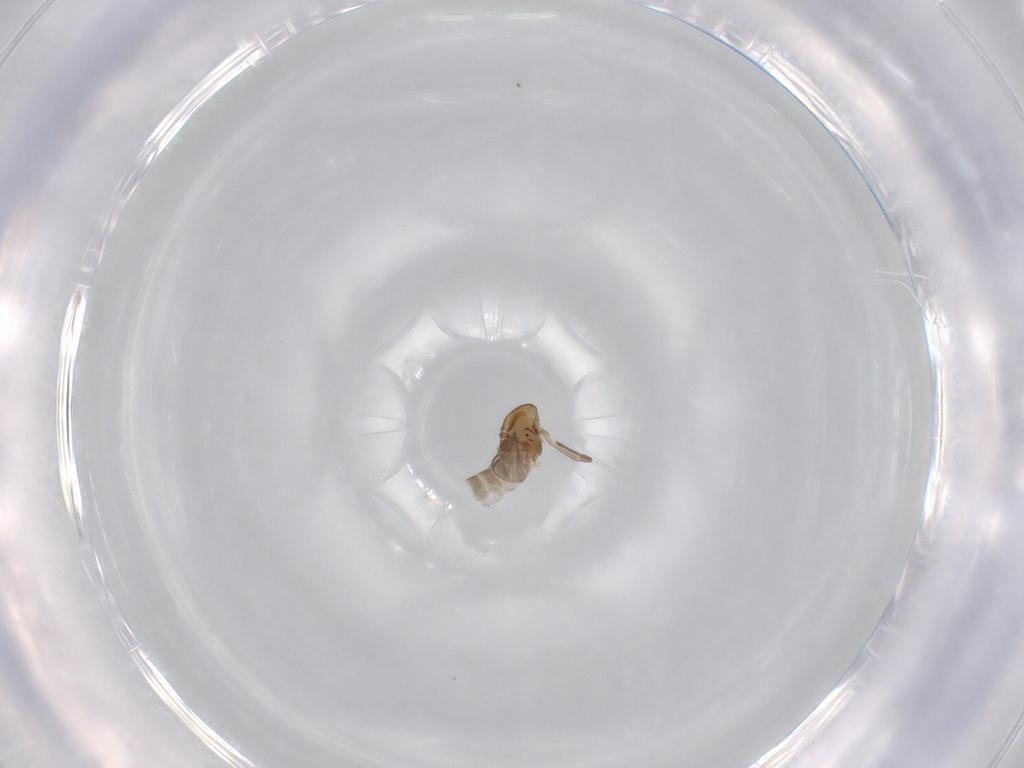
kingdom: Animalia
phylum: Arthropoda
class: Insecta
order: Diptera
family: Chironomidae
